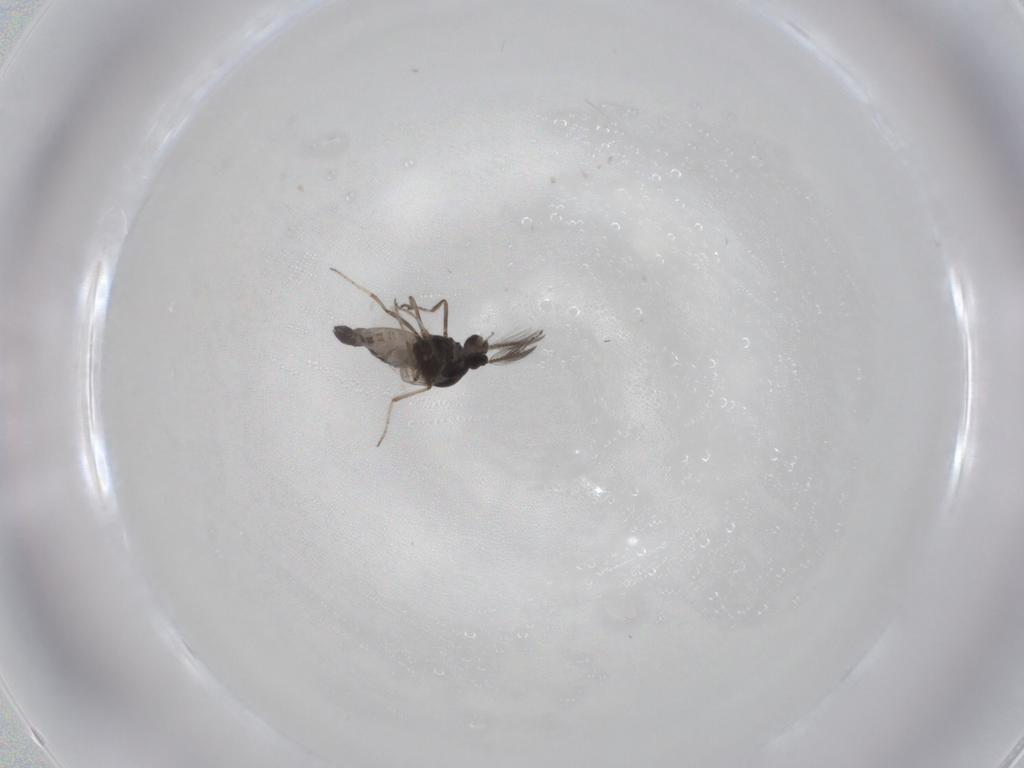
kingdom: Animalia
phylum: Arthropoda
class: Insecta
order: Diptera
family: Ceratopogonidae
